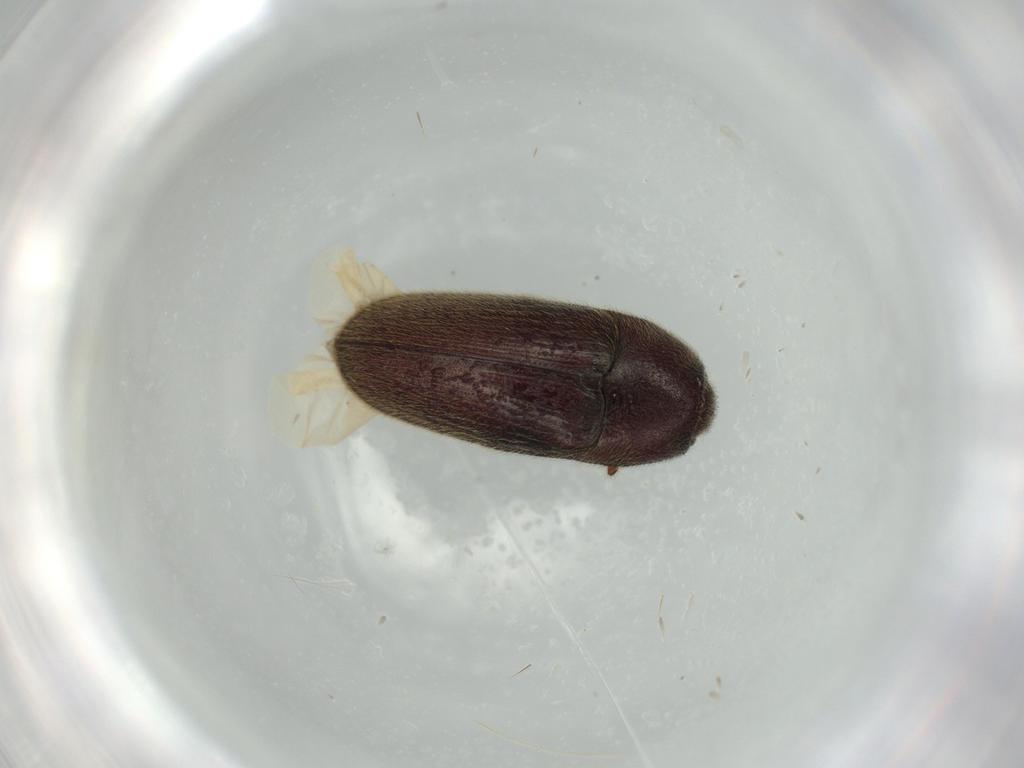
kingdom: Animalia
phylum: Arthropoda
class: Insecta
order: Coleoptera
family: Throscidae
